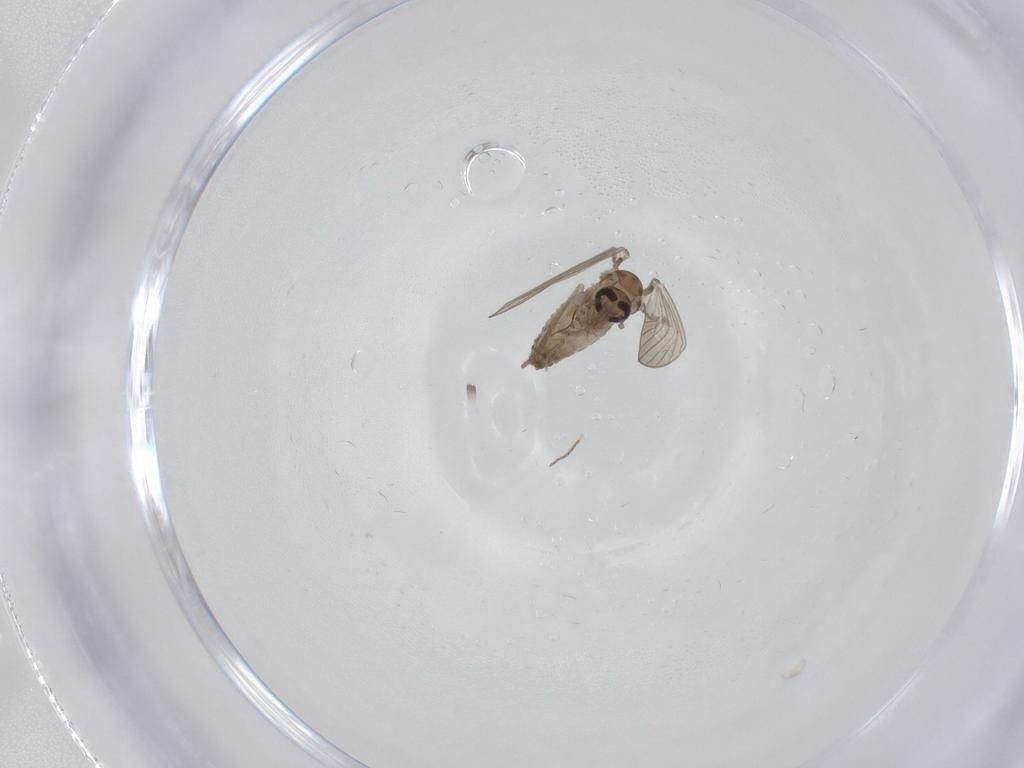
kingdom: Animalia
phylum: Arthropoda
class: Insecta
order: Diptera
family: Psychodidae
